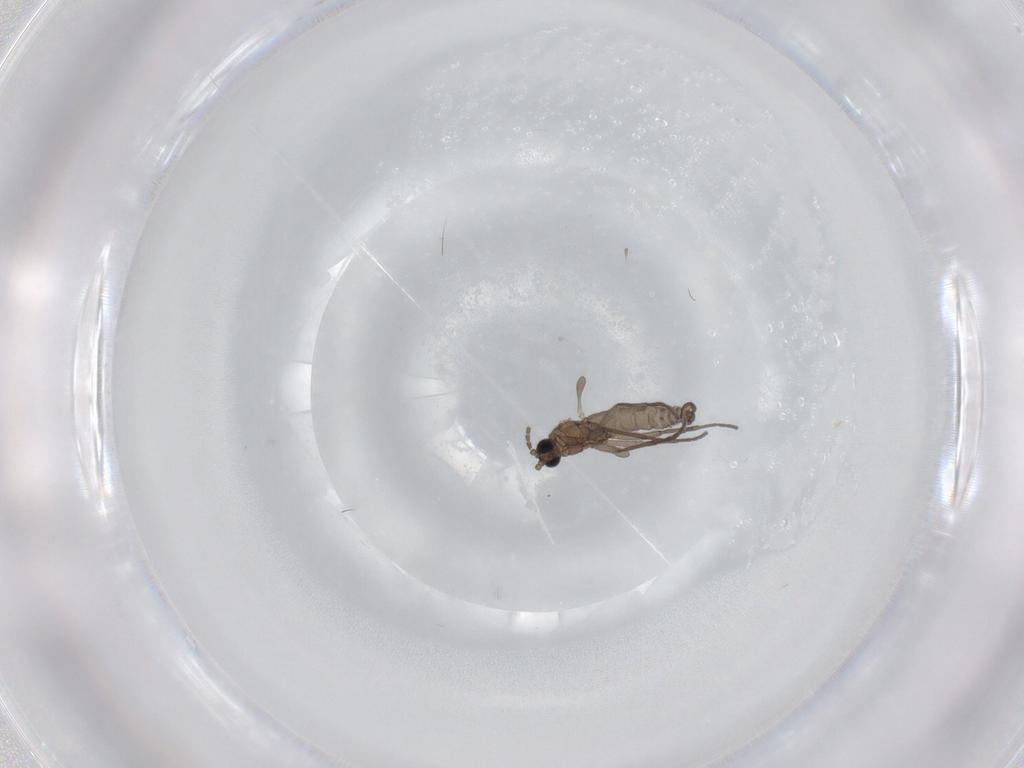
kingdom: Animalia
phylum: Arthropoda
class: Insecta
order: Diptera
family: Sciaridae
